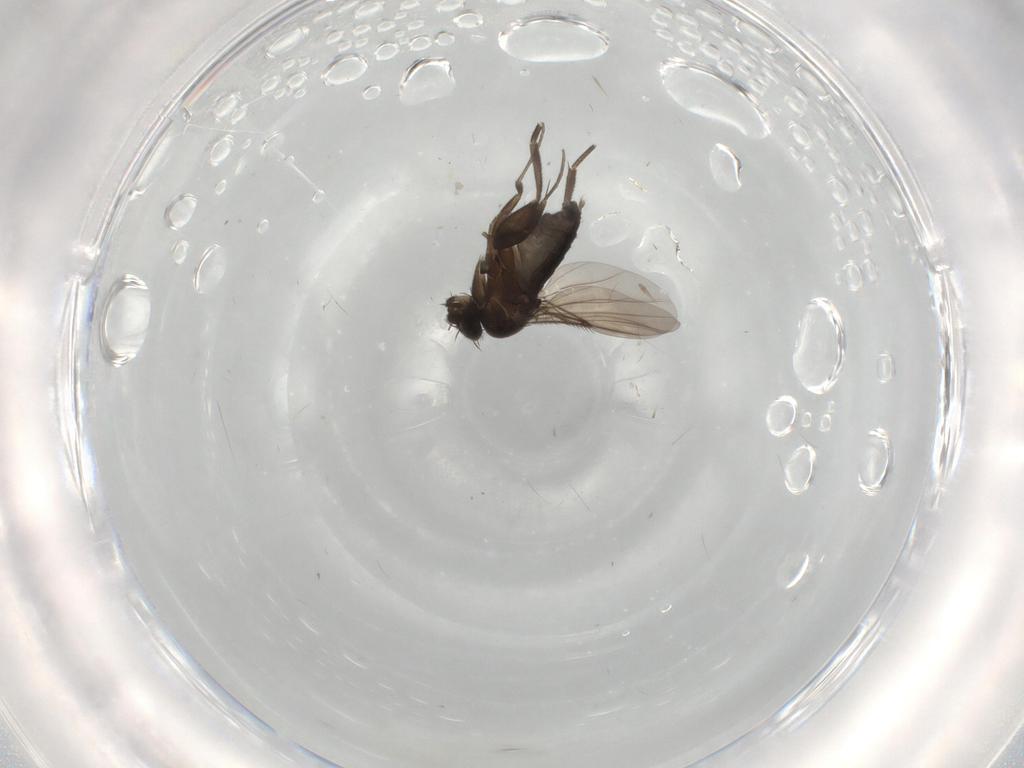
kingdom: Animalia
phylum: Arthropoda
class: Insecta
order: Diptera
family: Phoridae
